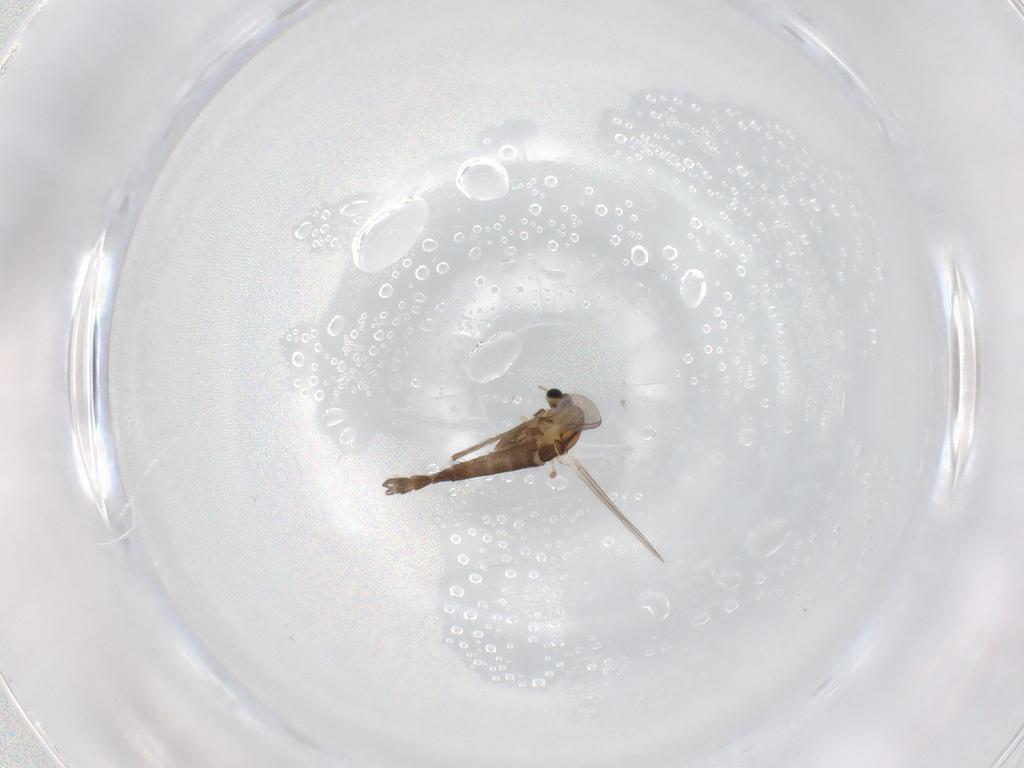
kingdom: Animalia
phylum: Arthropoda
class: Insecta
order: Diptera
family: Chironomidae
